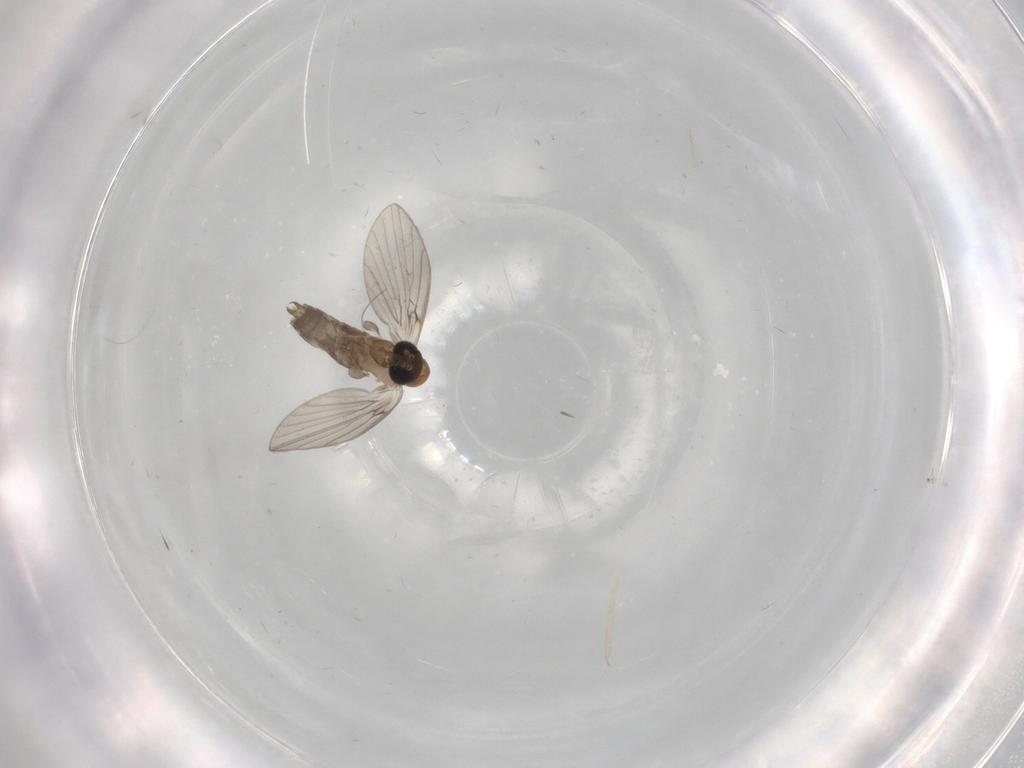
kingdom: Animalia
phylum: Arthropoda
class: Insecta
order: Diptera
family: Psychodidae
